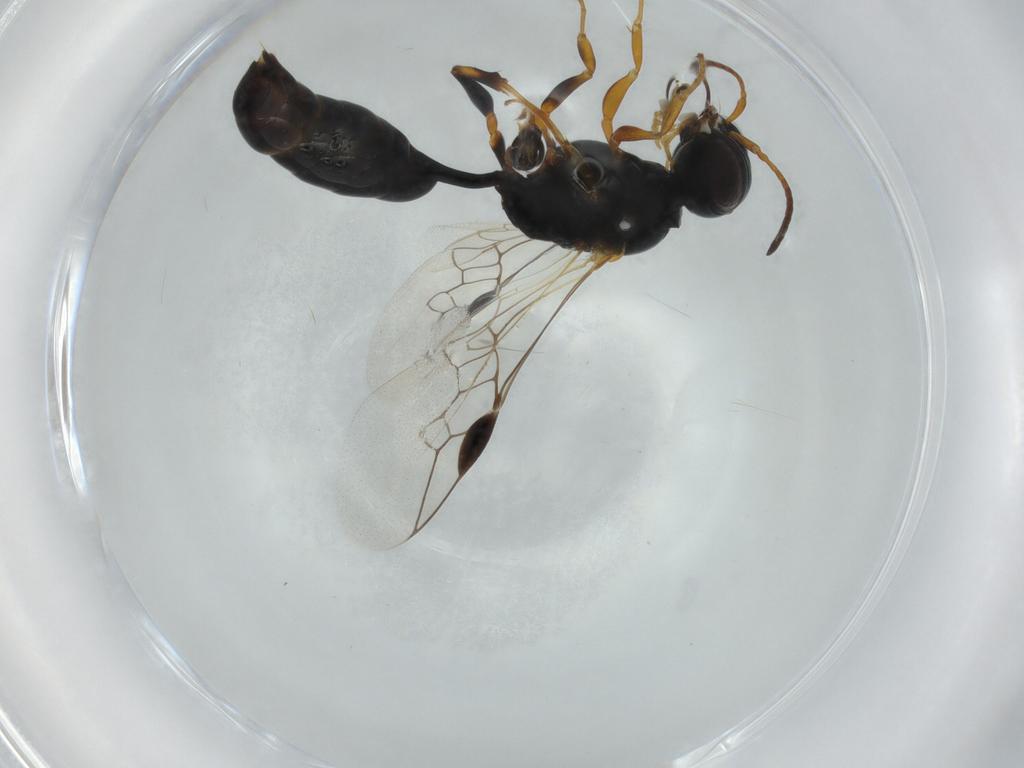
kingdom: Animalia
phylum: Arthropoda
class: Insecta
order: Hymenoptera
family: Crabronidae
